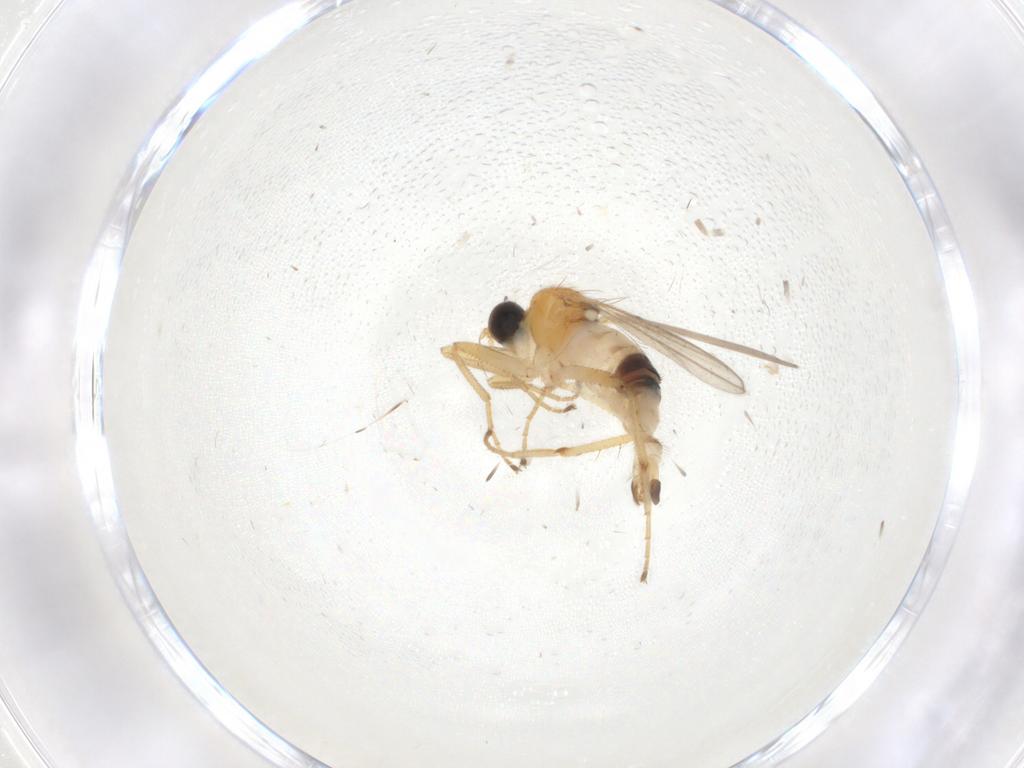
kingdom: Animalia
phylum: Arthropoda
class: Insecta
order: Diptera
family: Hybotidae
